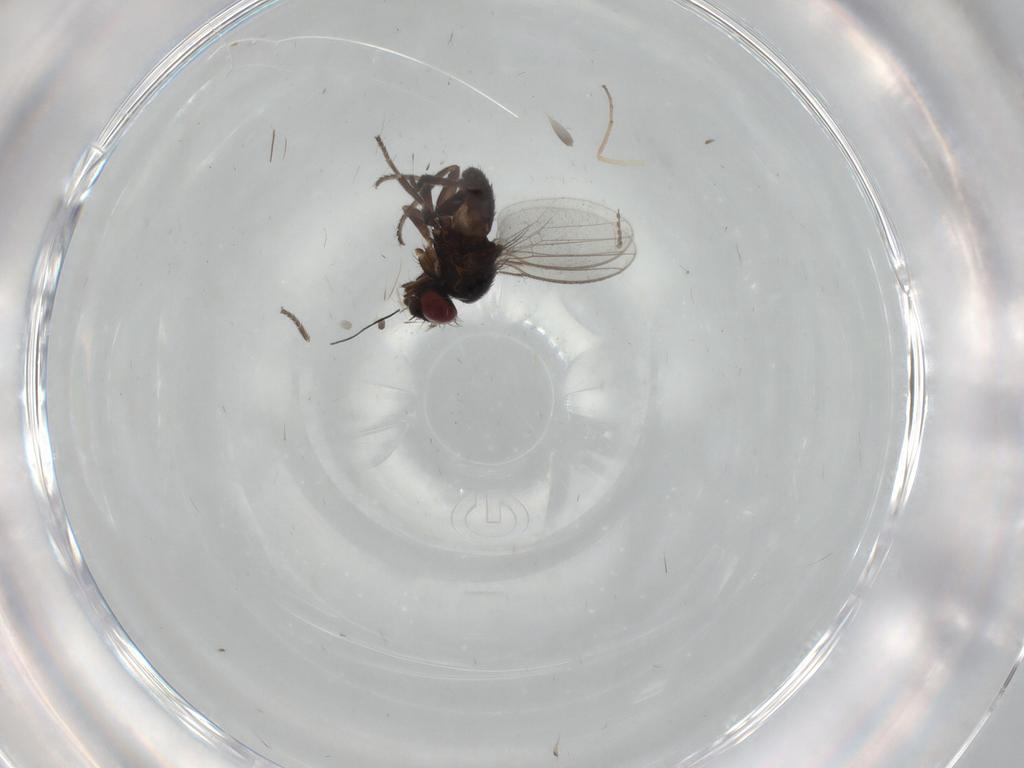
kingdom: Animalia
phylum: Arthropoda
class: Insecta
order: Diptera
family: Milichiidae
